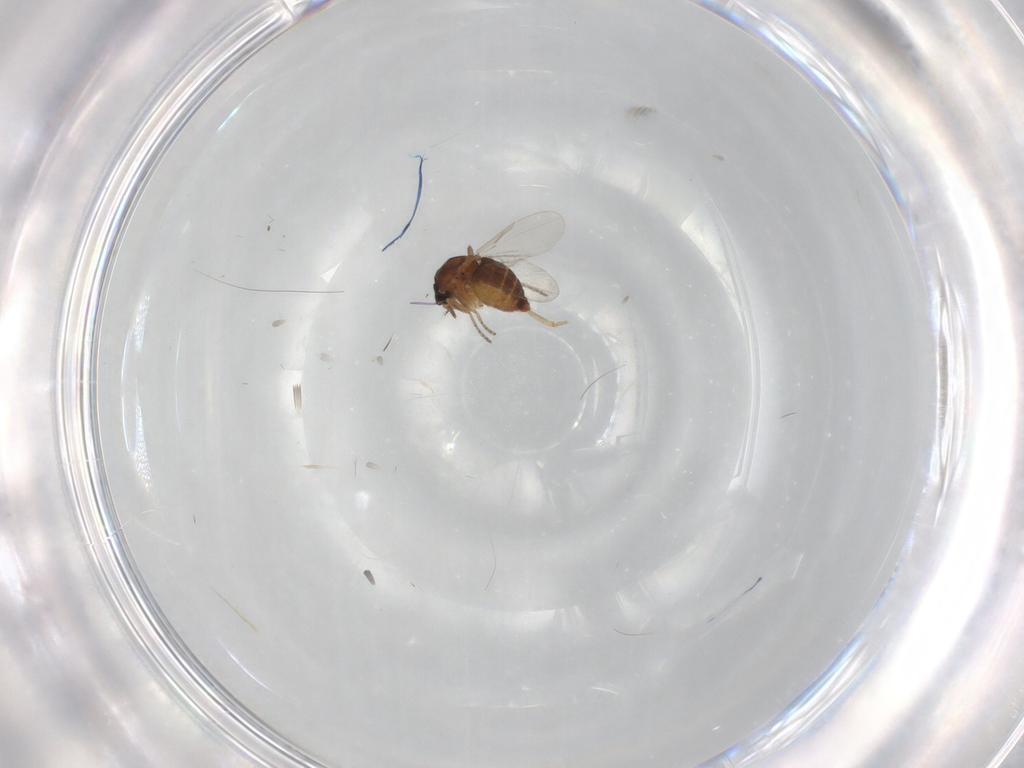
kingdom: Animalia
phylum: Arthropoda
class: Insecta
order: Diptera
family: Ceratopogonidae
